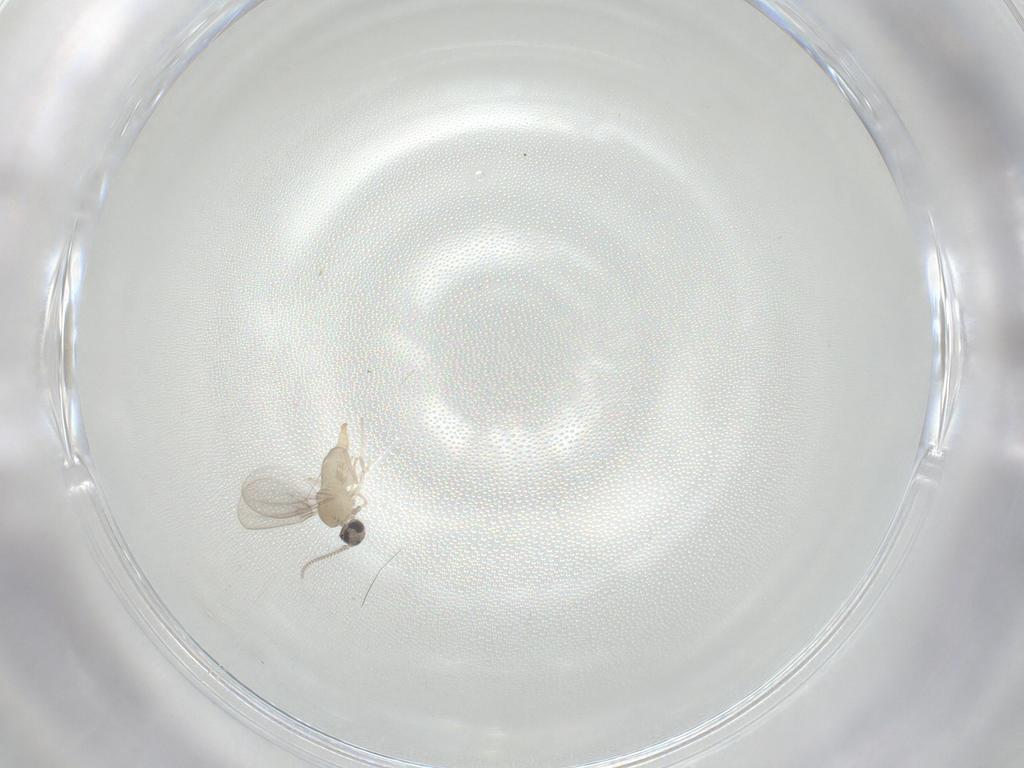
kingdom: Animalia
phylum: Arthropoda
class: Insecta
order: Diptera
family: Cecidomyiidae
